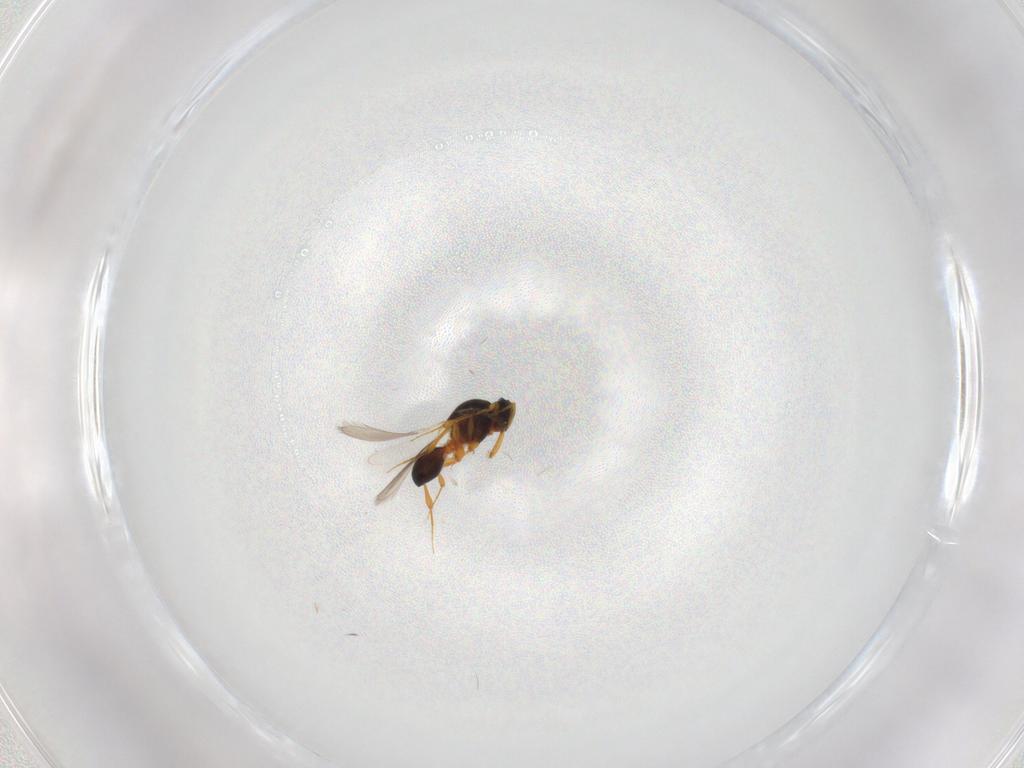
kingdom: Animalia
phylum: Arthropoda
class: Insecta
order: Hymenoptera
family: Platygastridae
